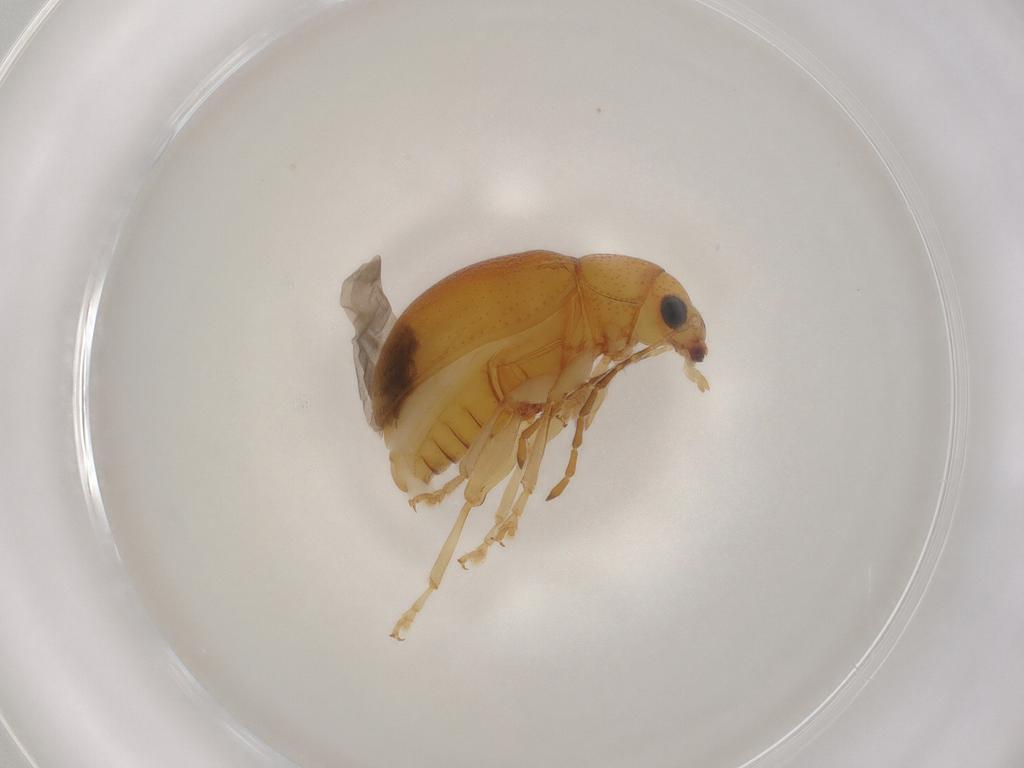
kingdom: Animalia
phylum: Arthropoda
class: Insecta
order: Coleoptera
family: Chrysomelidae
